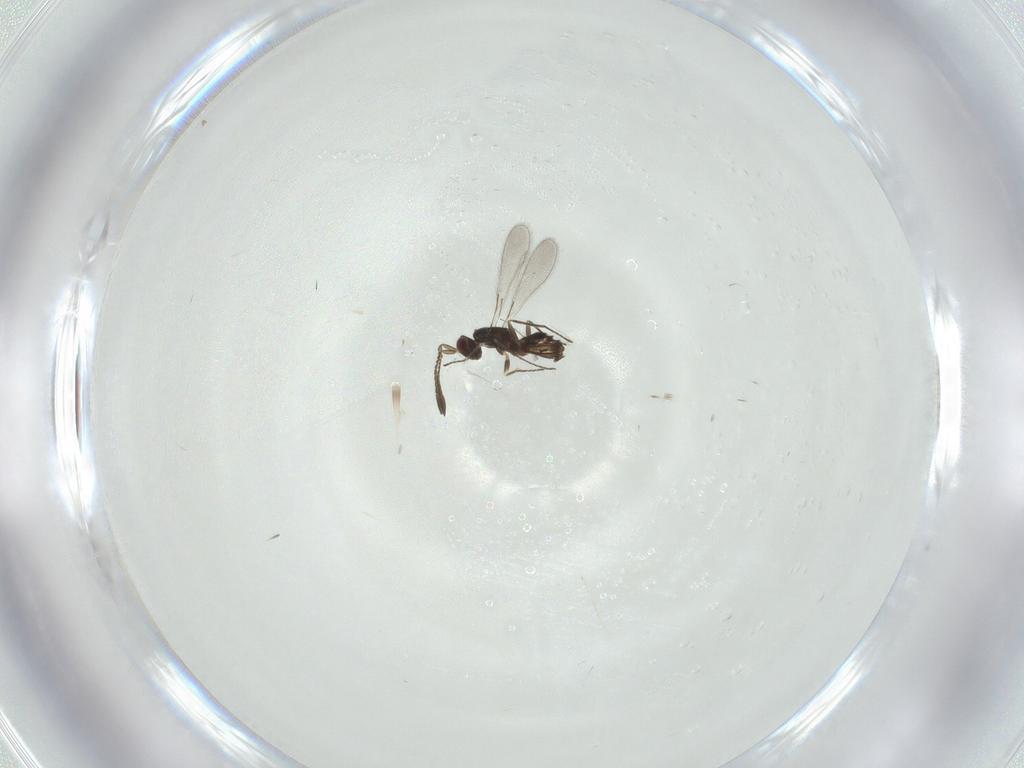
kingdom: Animalia
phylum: Arthropoda
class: Insecta
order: Hymenoptera
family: Mymaridae
